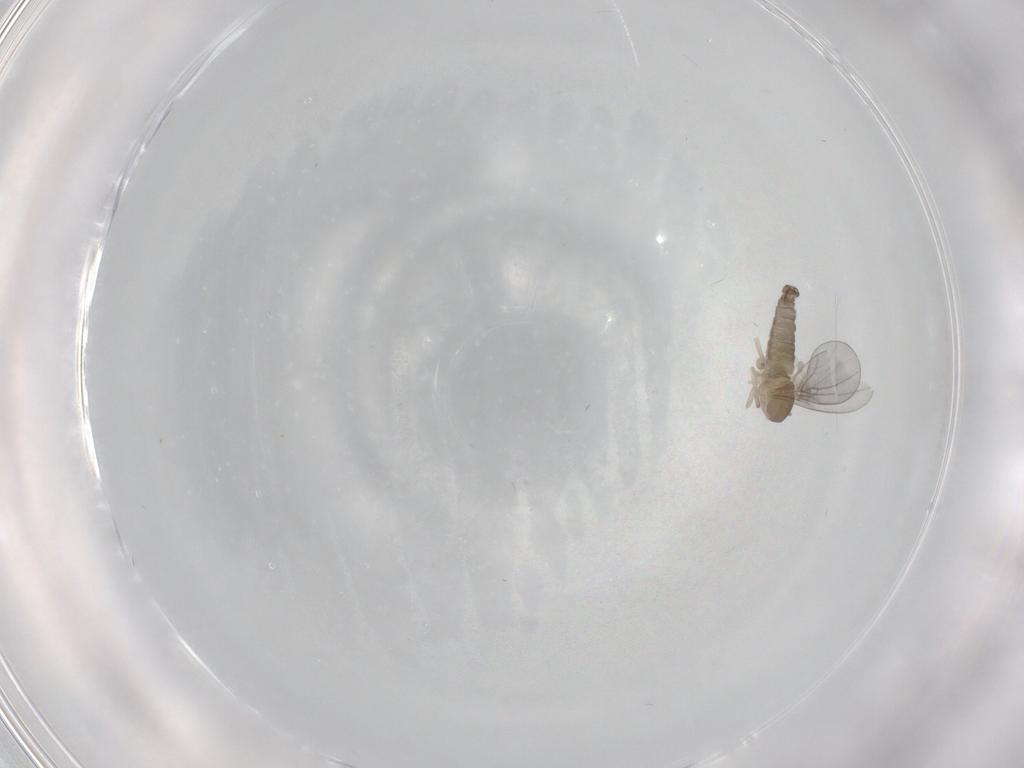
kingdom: Animalia
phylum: Arthropoda
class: Insecta
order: Diptera
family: Cecidomyiidae
